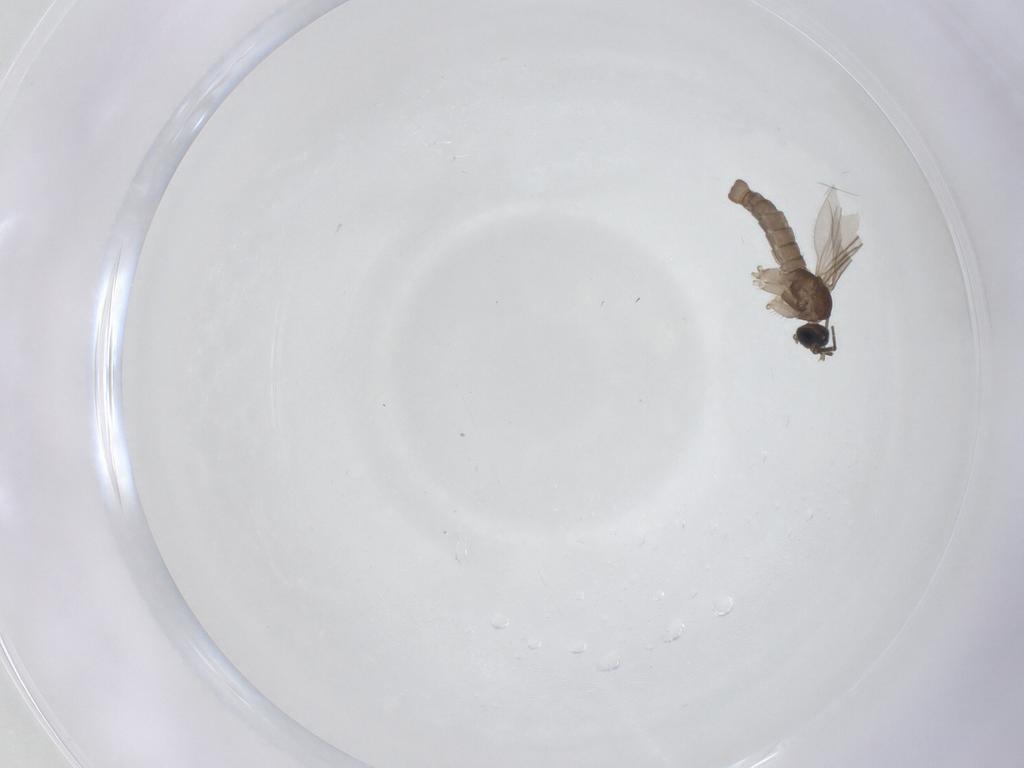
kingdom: Animalia
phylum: Arthropoda
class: Insecta
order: Diptera
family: Sciaridae
